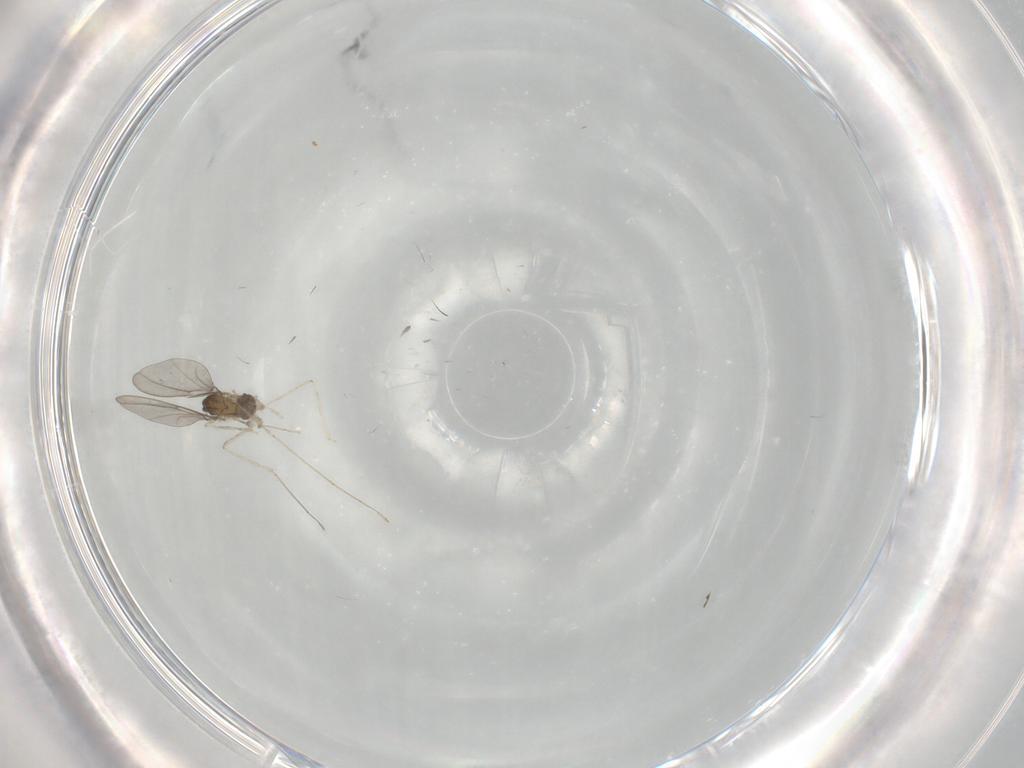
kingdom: Animalia
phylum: Arthropoda
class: Insecta
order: Diptera
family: Cecidomyiidae
